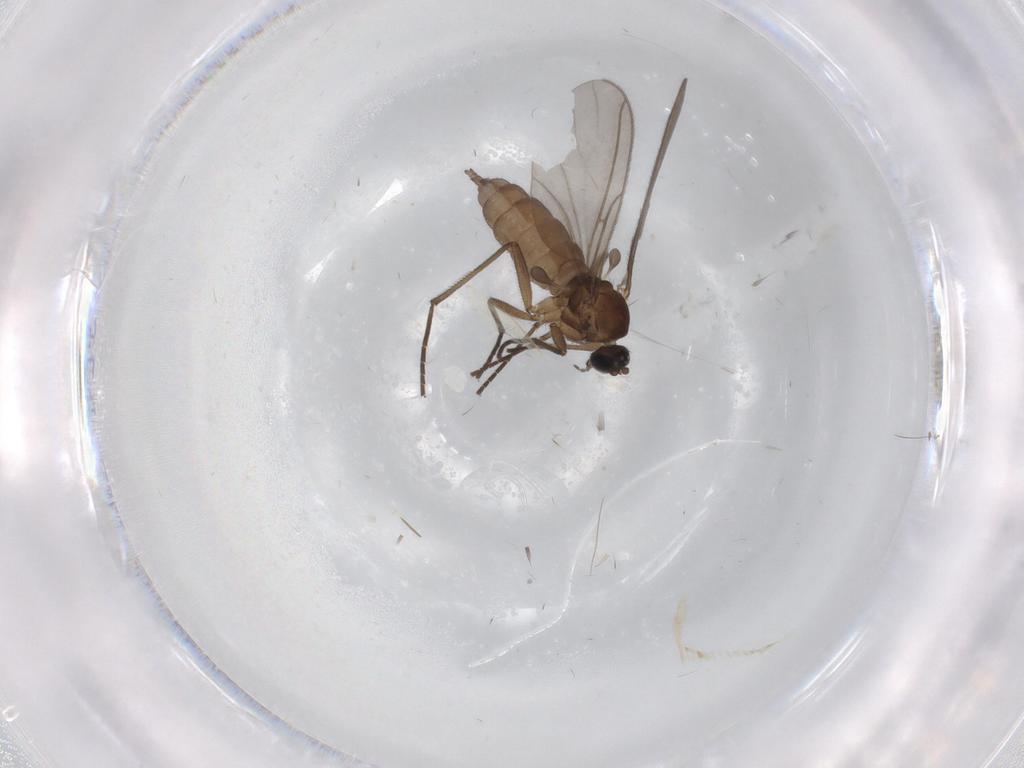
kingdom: Animalia
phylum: Arthropoda
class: Insecta
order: Diptera
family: Sciaridae
